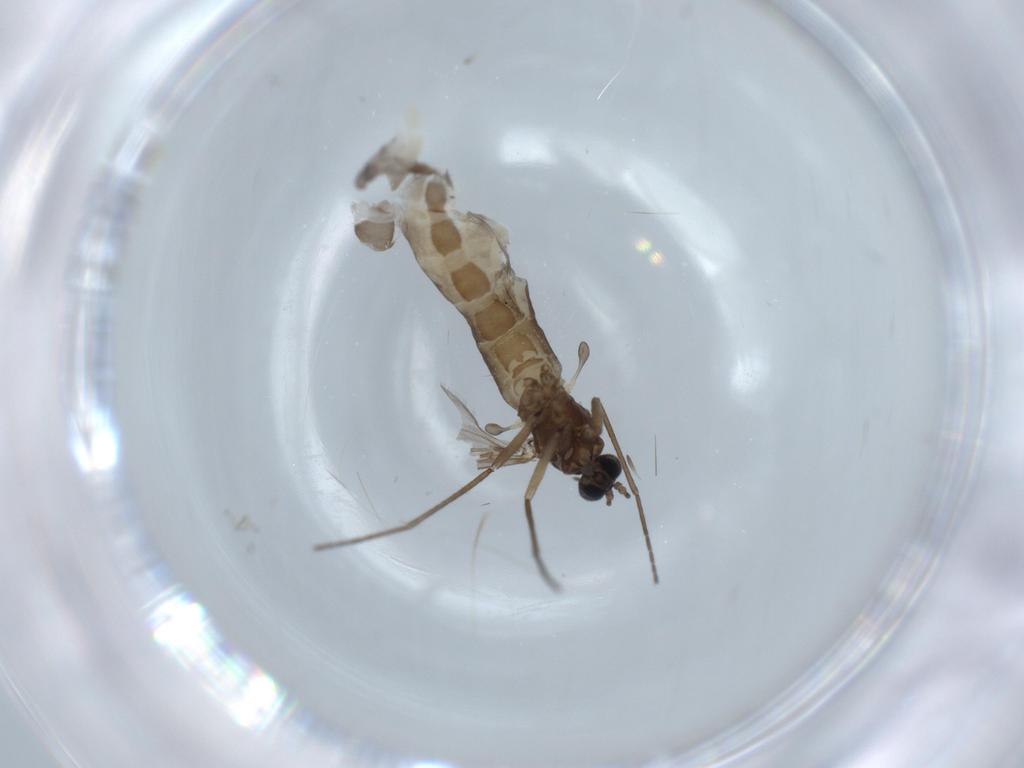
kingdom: Animalia
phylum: Arthropoda
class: Insecta
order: Diptera
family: Sciaridae
